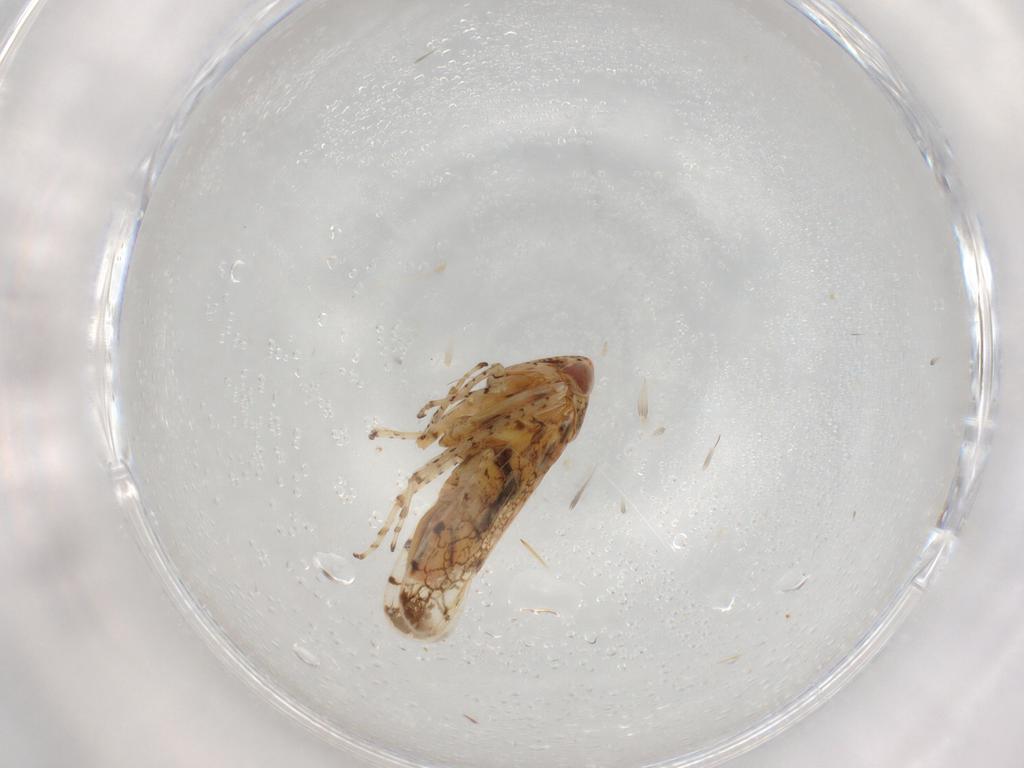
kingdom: Animalia
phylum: Arthropoda
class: Insecta
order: Hemiptera
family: Cicadellidae
